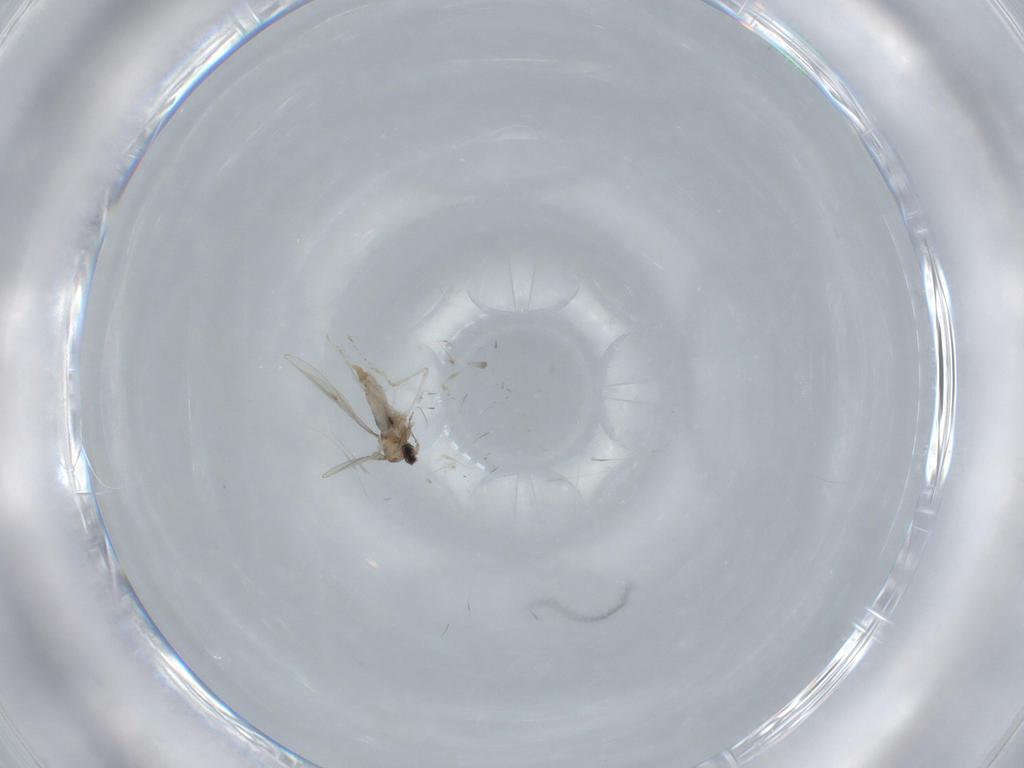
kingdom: Animalia
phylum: Arthropoda
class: Insecta
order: Diptera
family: Cecidomyiidae
